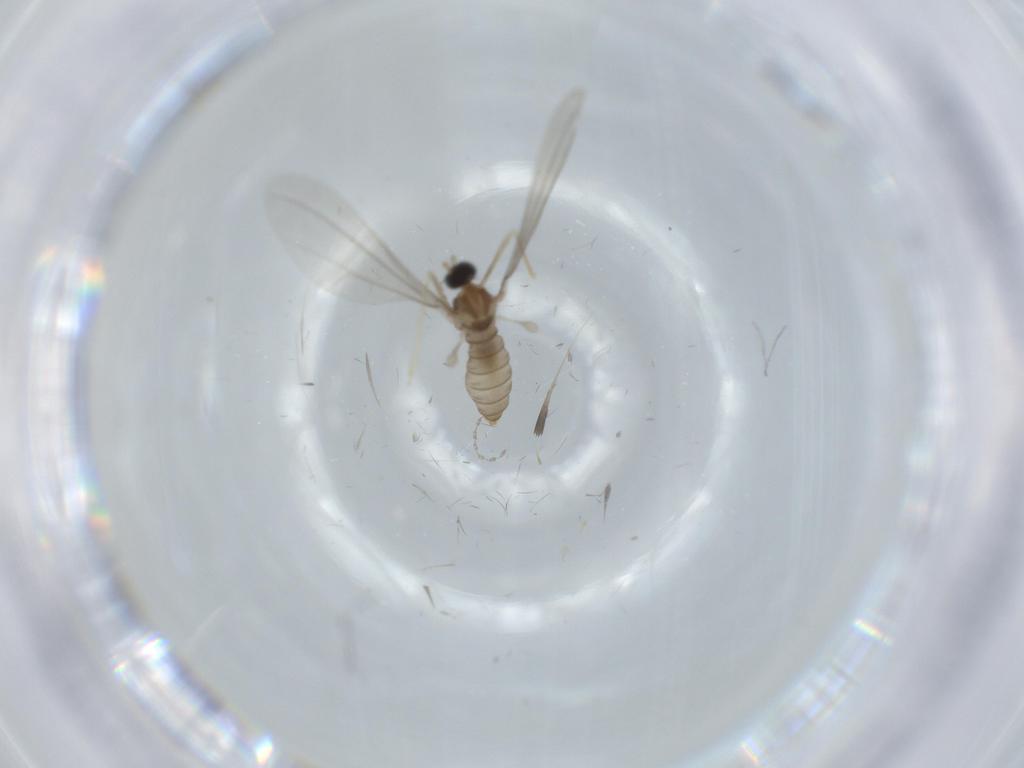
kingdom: Animalia
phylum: Arthropoda
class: Insecta
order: Diptera
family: Cecidomyiidae
